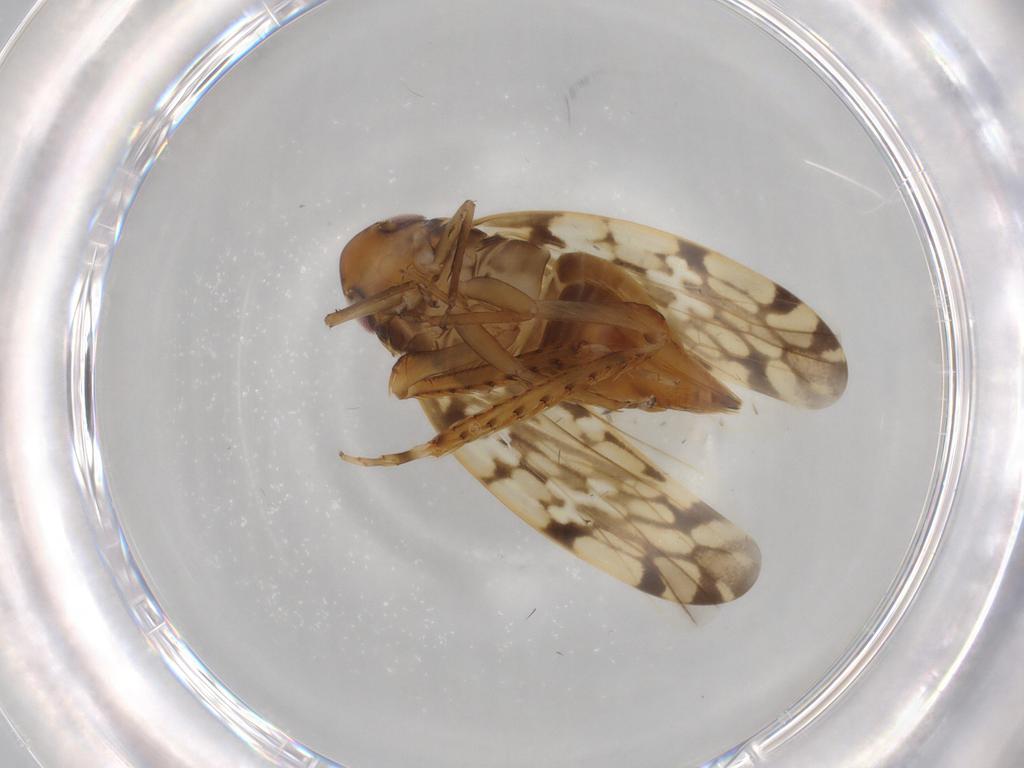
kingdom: Animalia
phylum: Arthropoda
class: Insecta
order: Hemiptera
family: Cicadellidae
